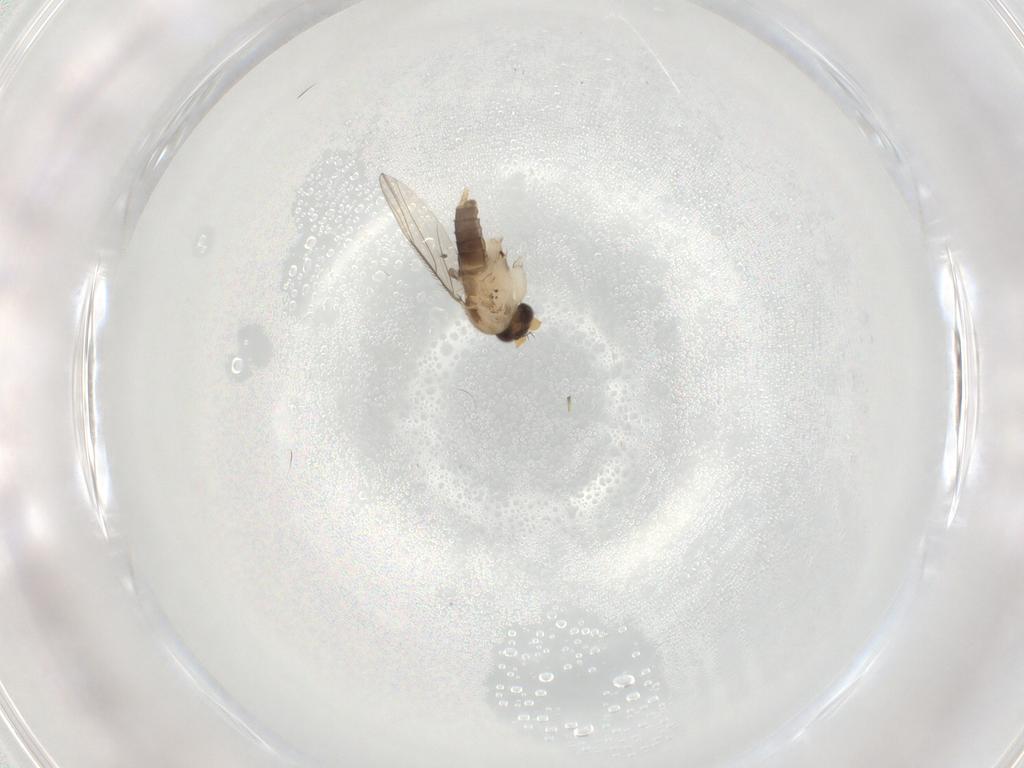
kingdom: Animalia
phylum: Arthropoda
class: Insecta
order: Diptera
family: Phoridae
